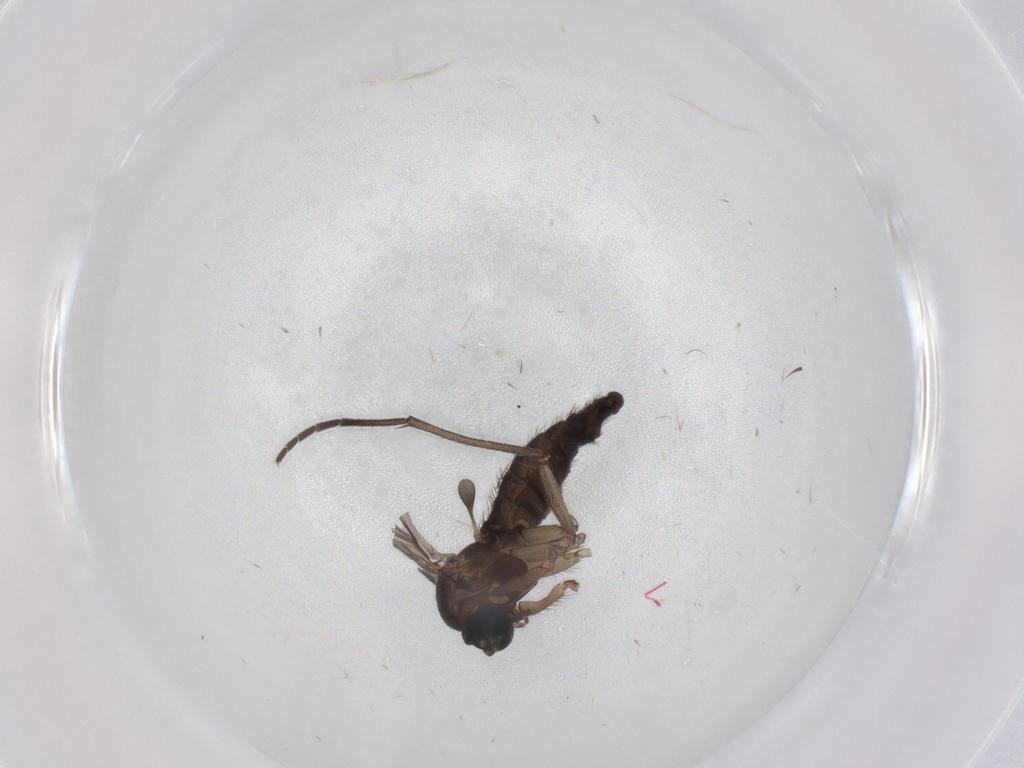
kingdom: Animalia
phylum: Arthropoda
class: Insecta
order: Diptera
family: Sciaridae
